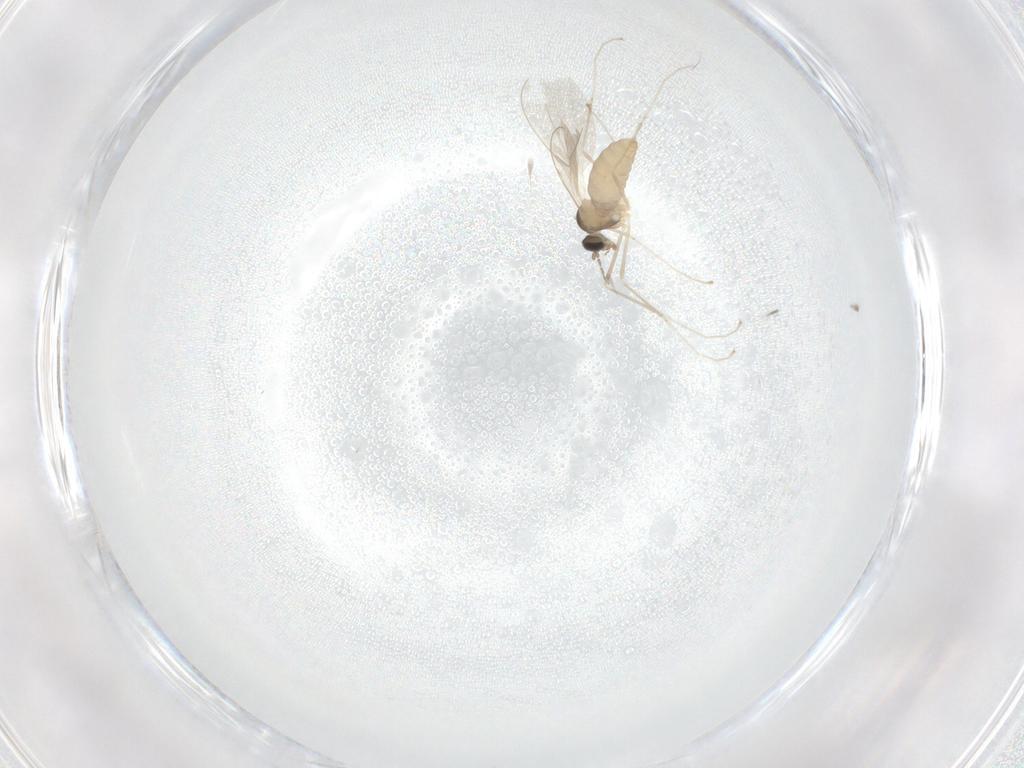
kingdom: Animalia
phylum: Arthropoda
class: Insecta
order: Diptera
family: Cecidomyiidae
